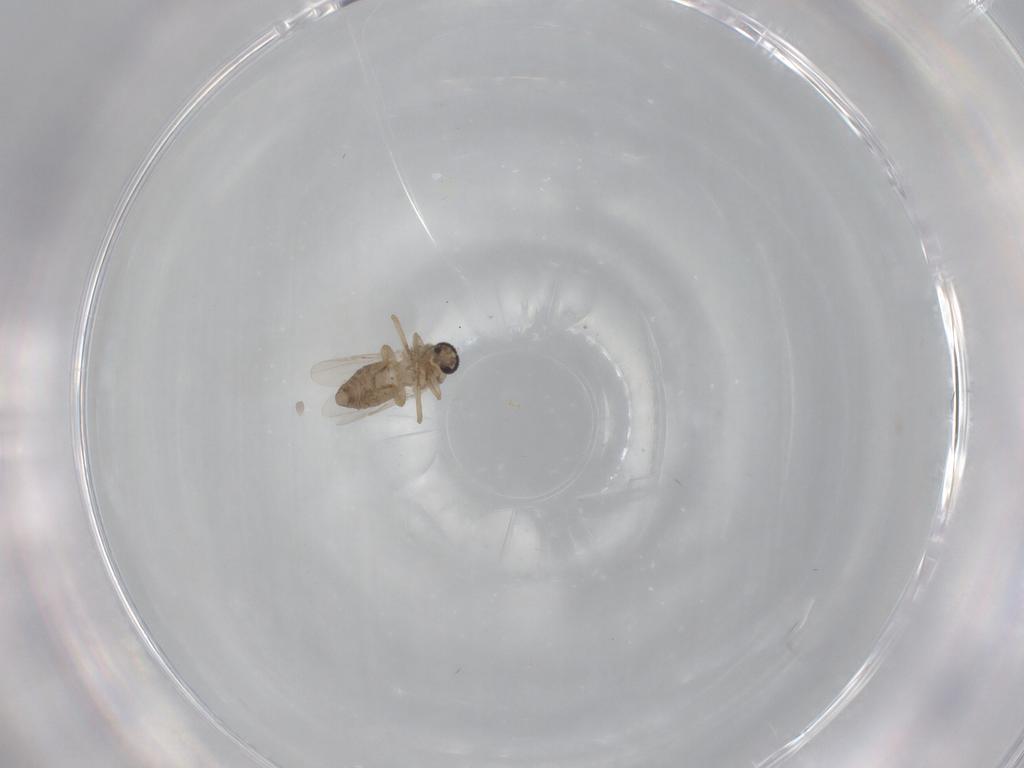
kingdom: Animalia
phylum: Arthropoda
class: Insecta
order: Diptera
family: Ceratopogonidae
